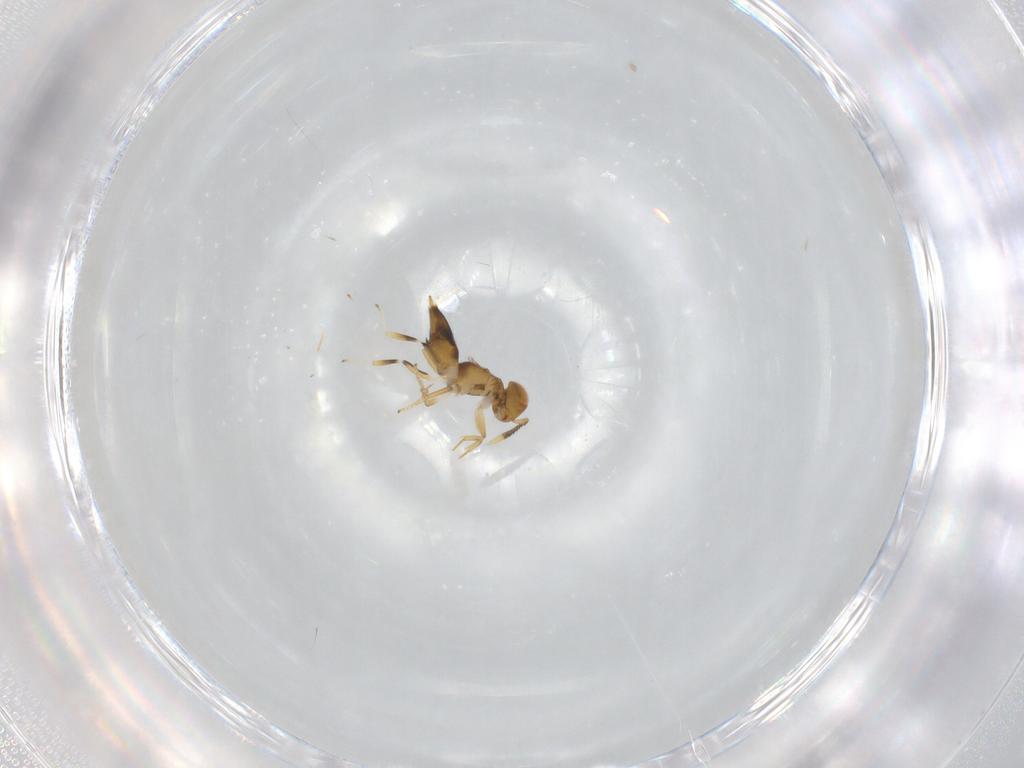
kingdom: Animalia
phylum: Arthropoda
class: Insecta
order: Hymenoptera
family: Encyrtidae
